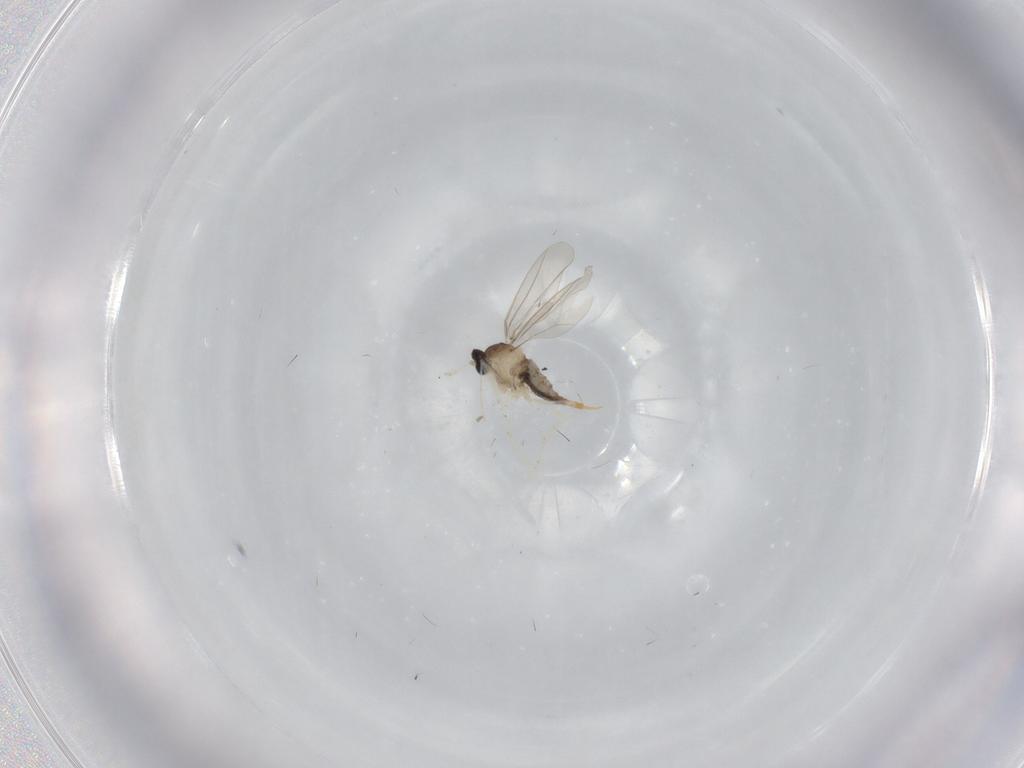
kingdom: Animalia
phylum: Arthropoda
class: Insecta
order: Diptera
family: Cecidomyiidae
